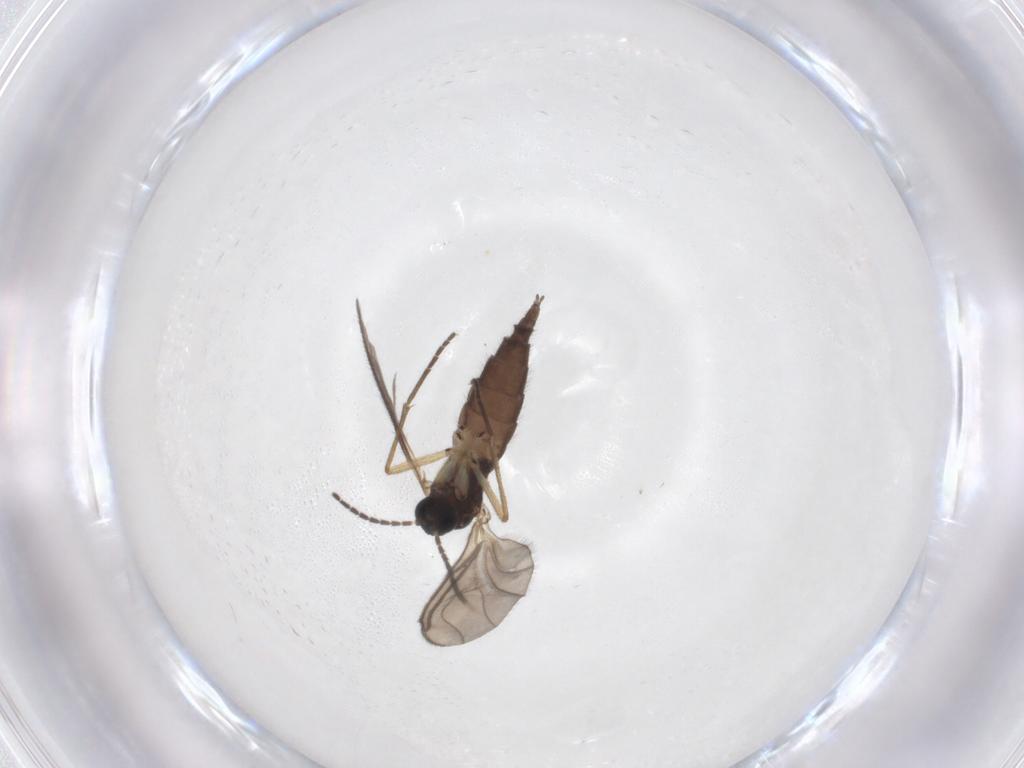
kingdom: Animalia
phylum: Arthropoda
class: Insecta
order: Diptera
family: Sciaridae
